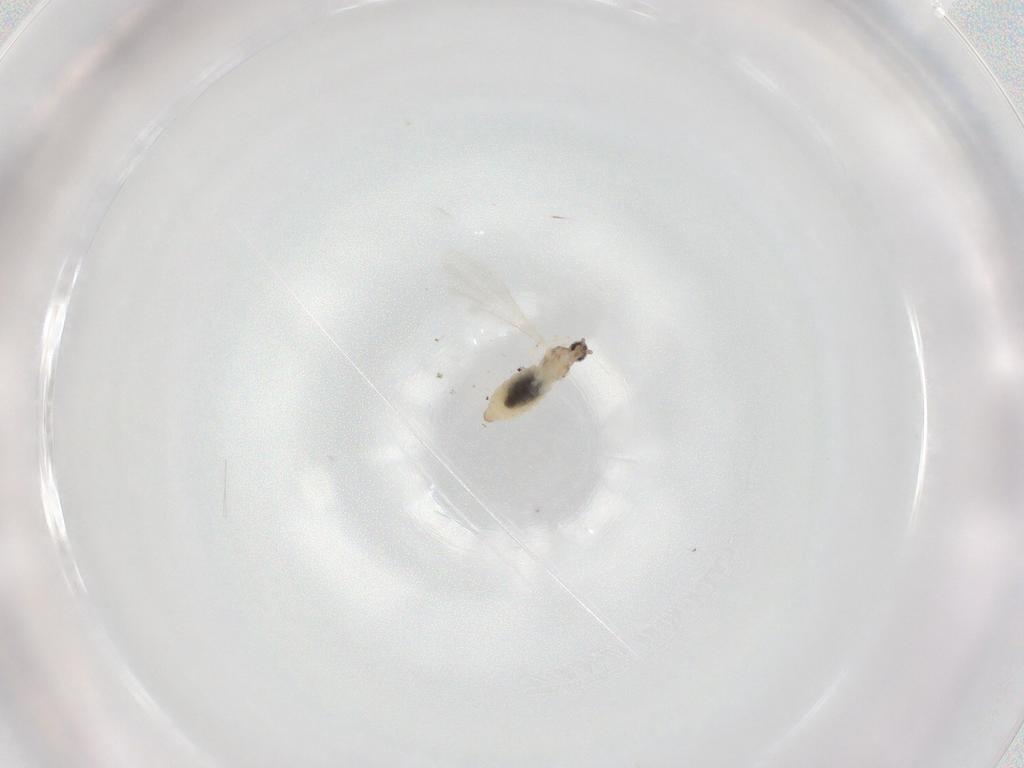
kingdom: Animalia
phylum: Arthropoda
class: Insecta
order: Diptera
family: Cecidomyiidae
